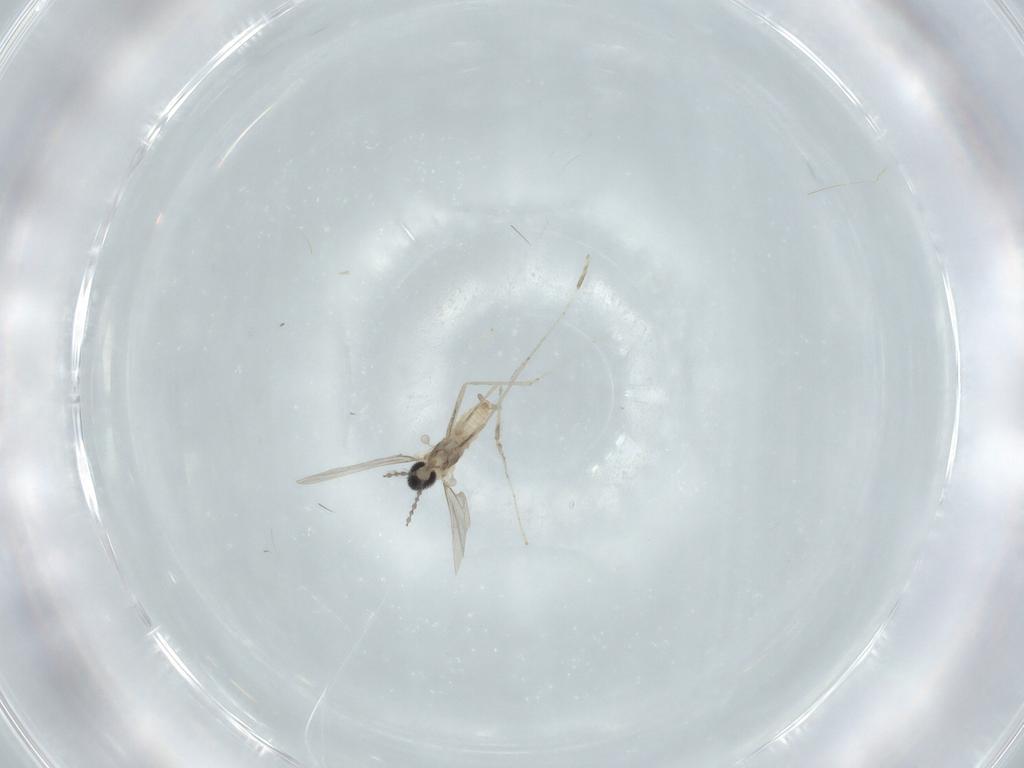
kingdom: Animalia
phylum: Arthropoda
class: Insecta
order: Diptera
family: Cecidomyiidae
